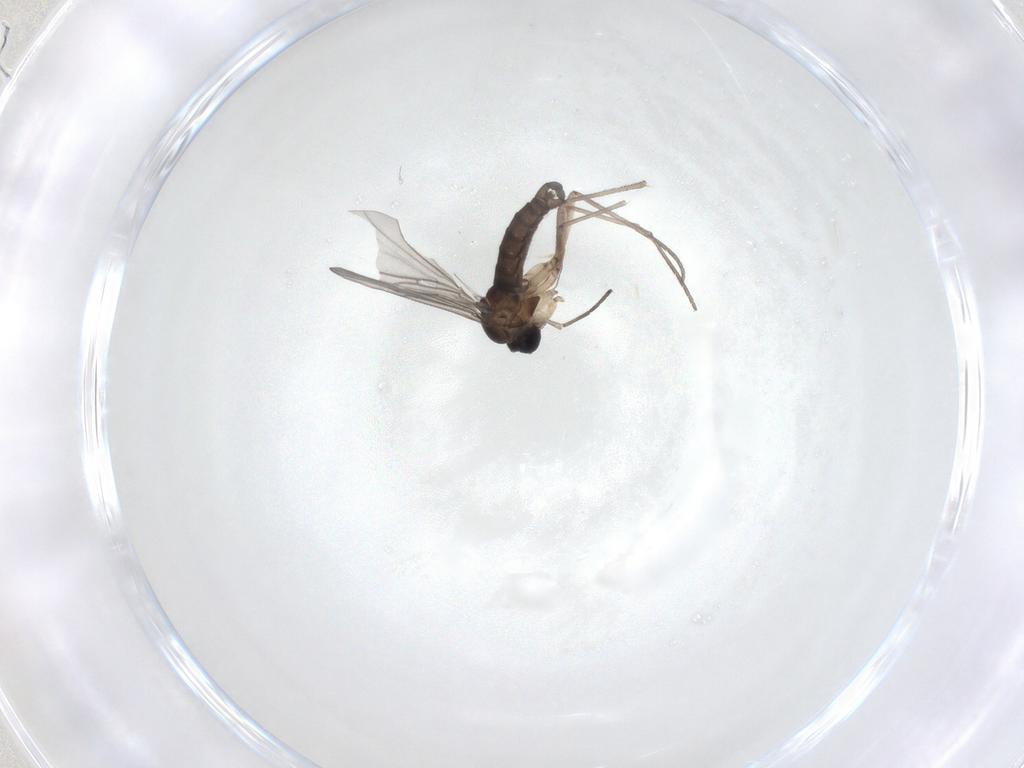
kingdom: Animalia
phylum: Arthropoda
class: Insecta
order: Diptera
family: Sciaridae
